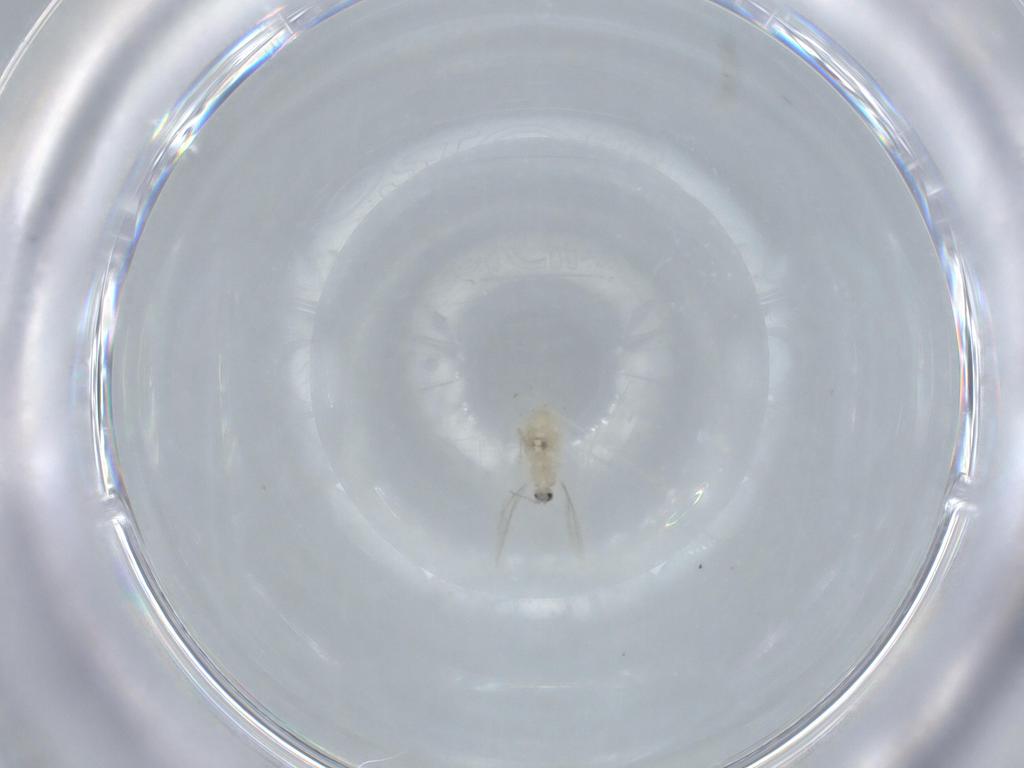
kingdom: Animalia
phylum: Arthropoda
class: Insecta
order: Diptera
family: Cecidomyiidae
